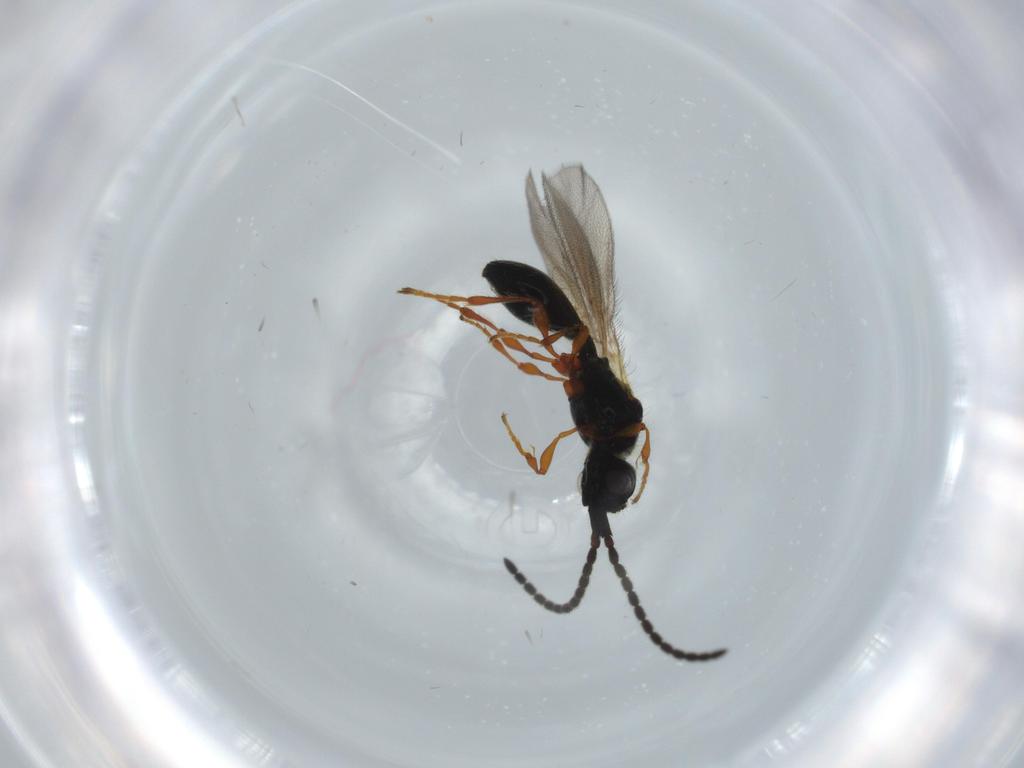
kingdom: Animalia
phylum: Arthropoda
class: Insecta
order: Hymenoptera
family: Diapriidae
